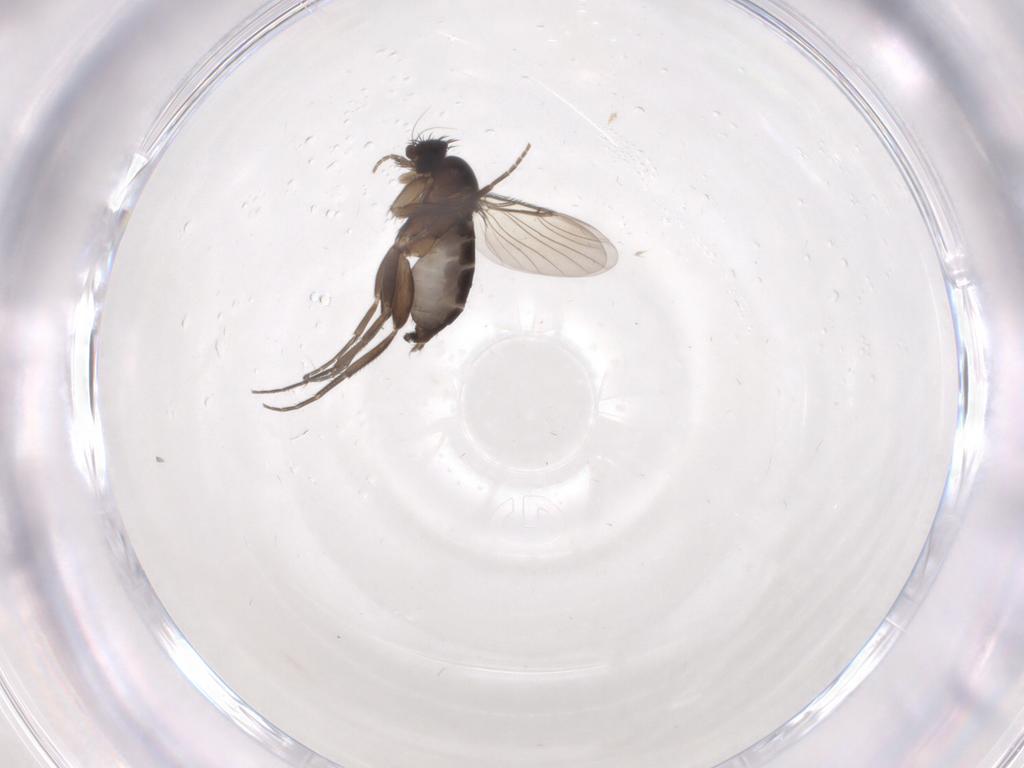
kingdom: Animalia
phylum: Arthropoda
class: Insecta
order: Diptera
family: Phoridae
